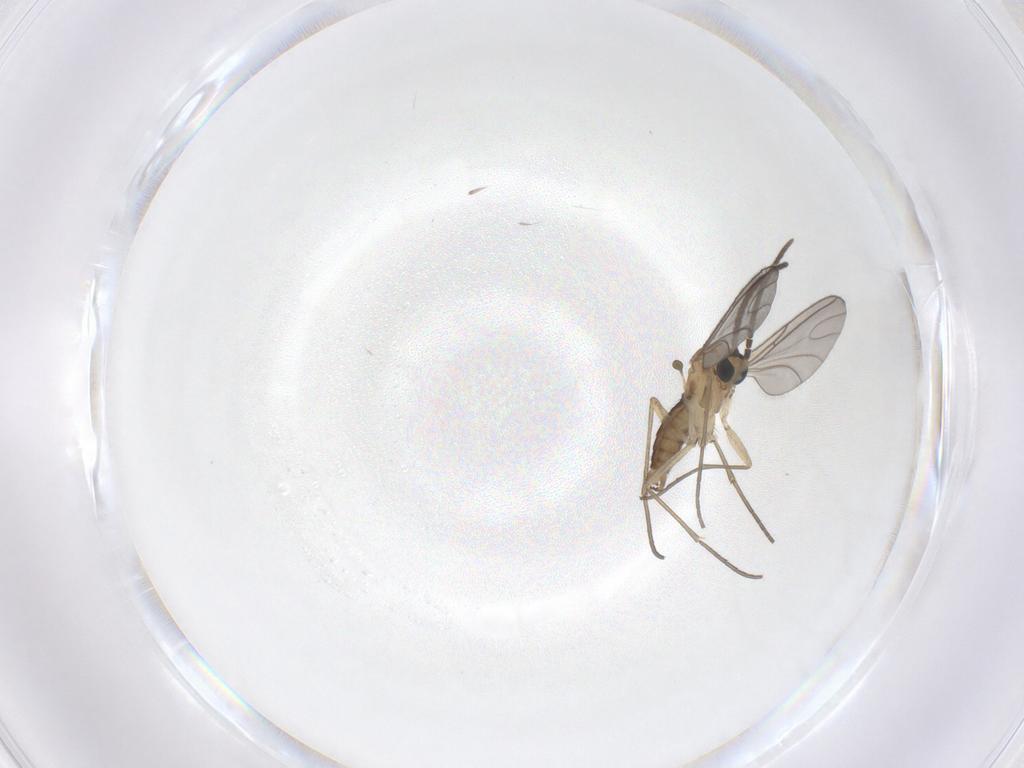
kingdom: Animalia
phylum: Arthropoda
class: Insecta
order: Diptera
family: Sciaridae
